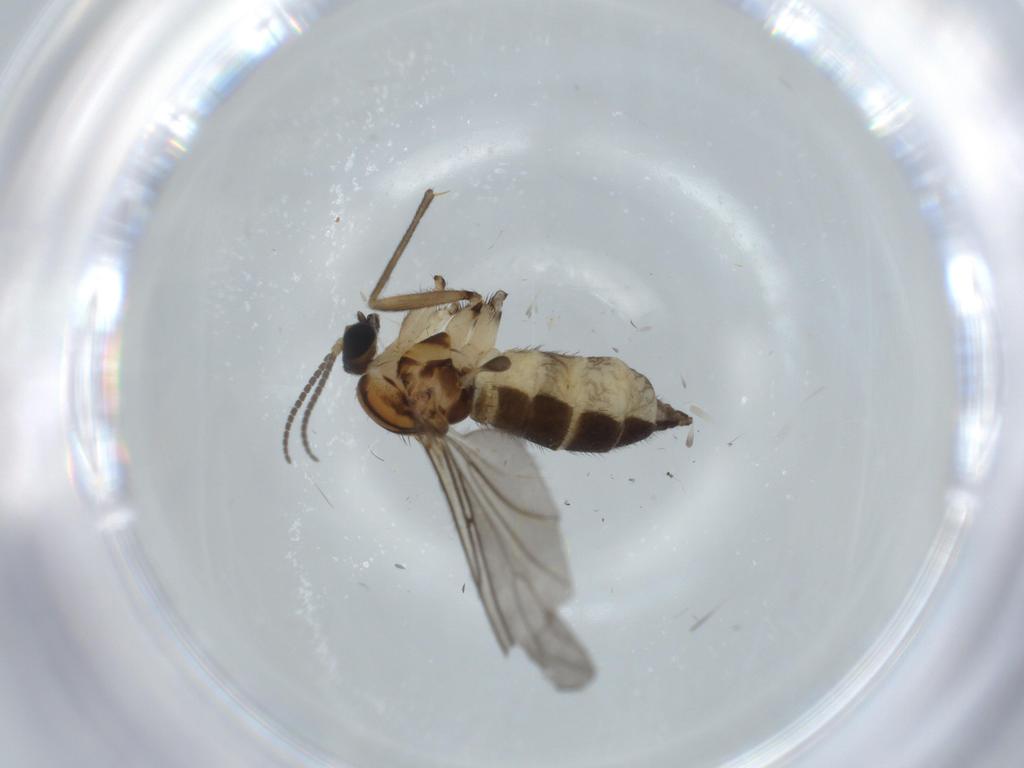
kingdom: Animalia
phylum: Arthropoda
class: Insecta
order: Diptera
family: Sciaridae
